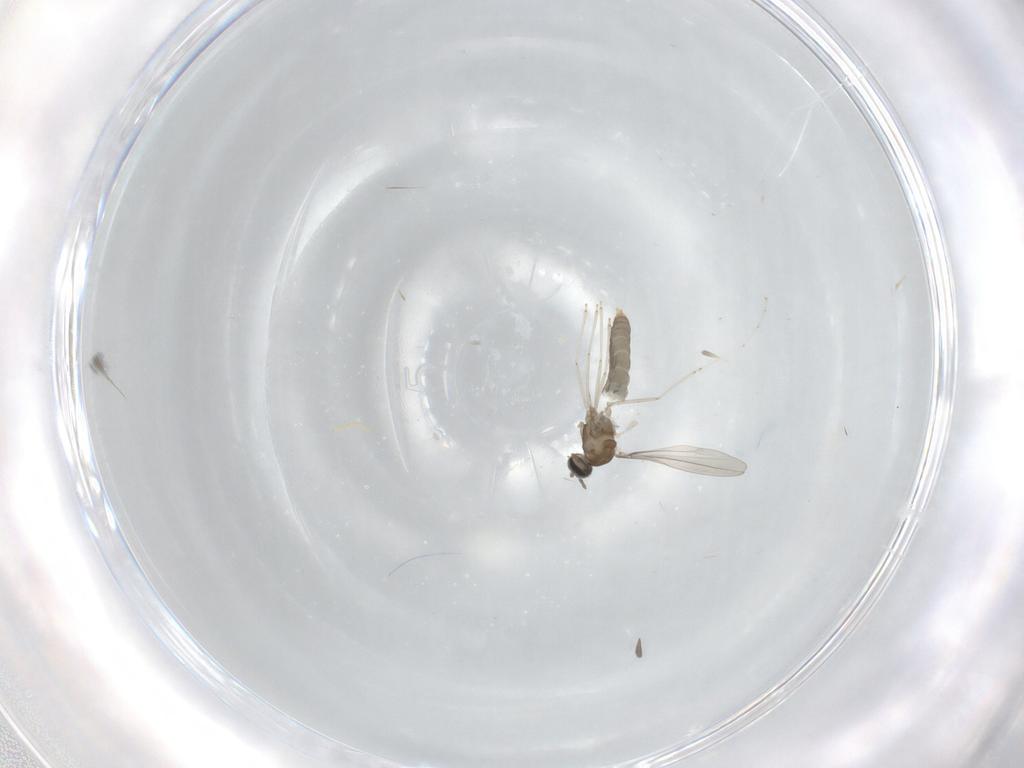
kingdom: Animalia
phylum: Arthropoda
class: Insecta
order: Diptera
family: Cecidomyiidae
